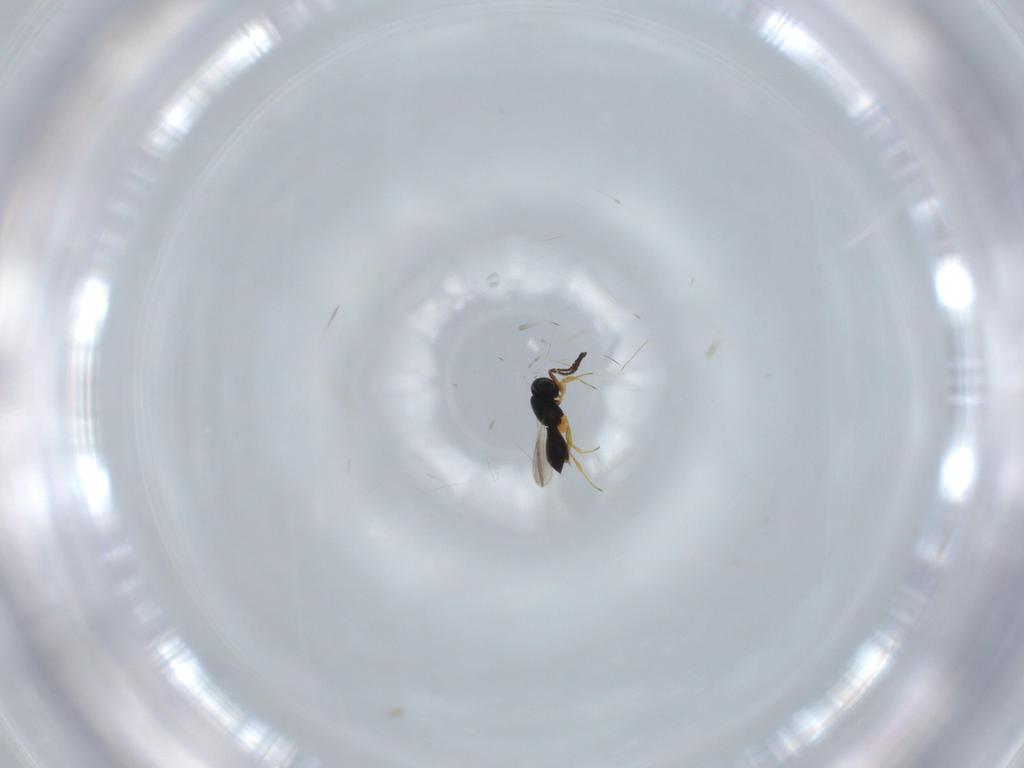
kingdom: Animalia
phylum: Arthropoda
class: Insecta
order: Hymenoptera
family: Scelionidae
